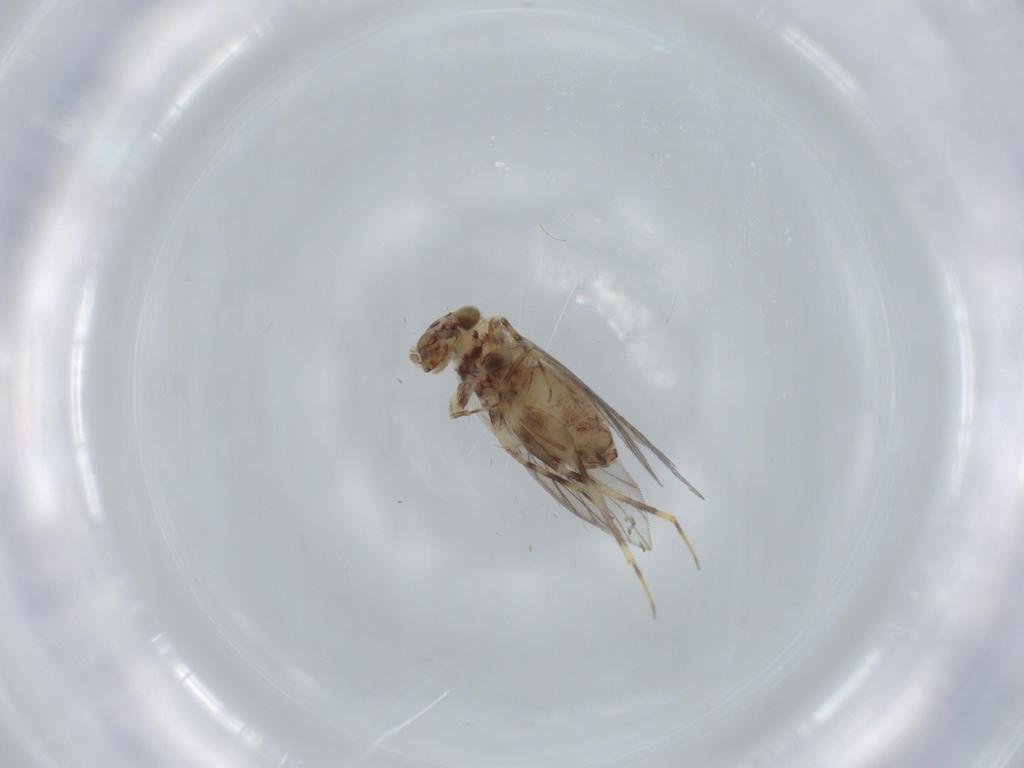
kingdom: Animalia
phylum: Arthropoda
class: Insecta
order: Psocodea
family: Lepidopsocidae
